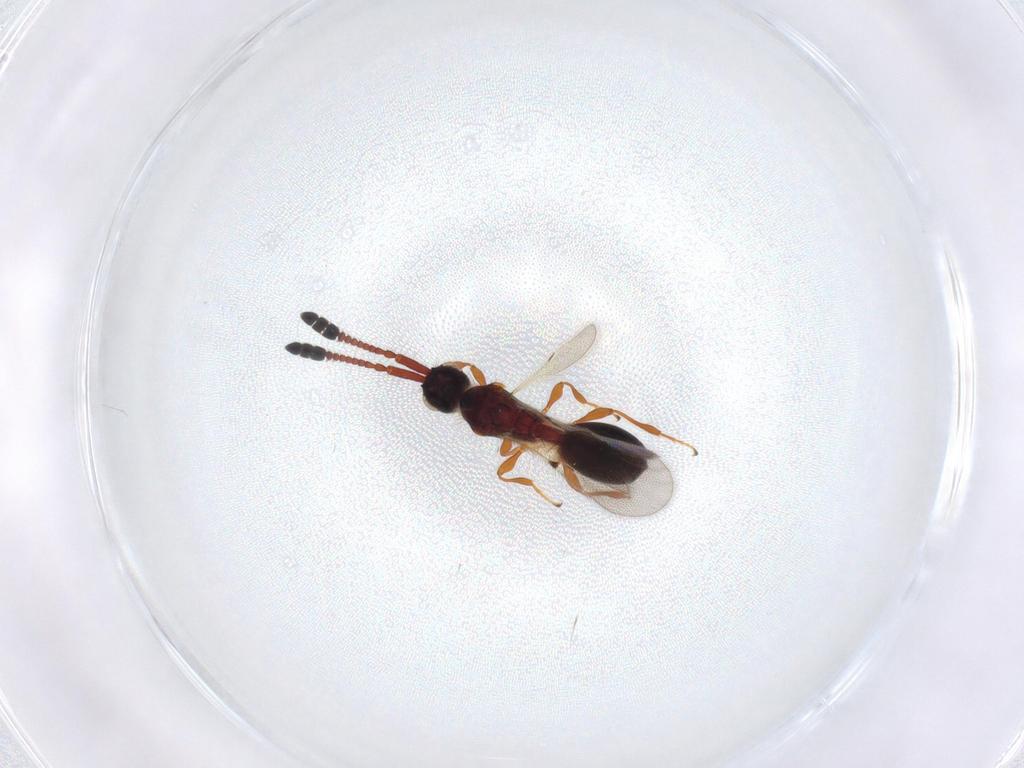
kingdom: Animalia
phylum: Arthropoda
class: Insecta
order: Hymenoptera
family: Diapriidae
